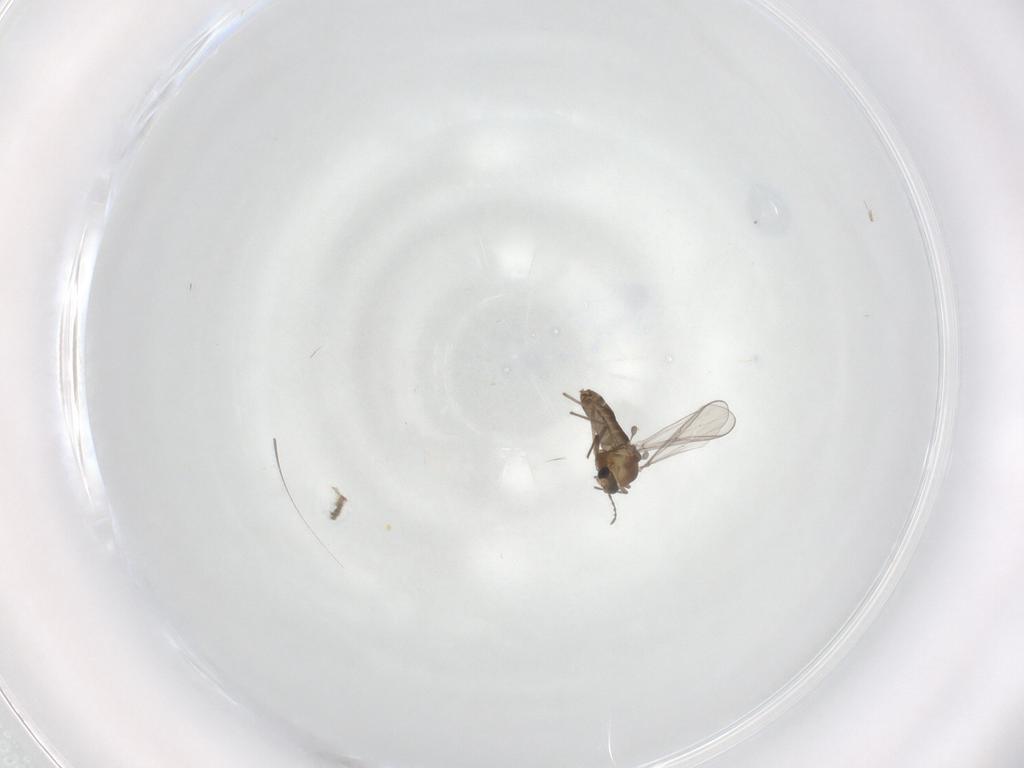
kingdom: Animalia
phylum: Arthropoda
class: Insecta
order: Diptera
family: Chironomidae
